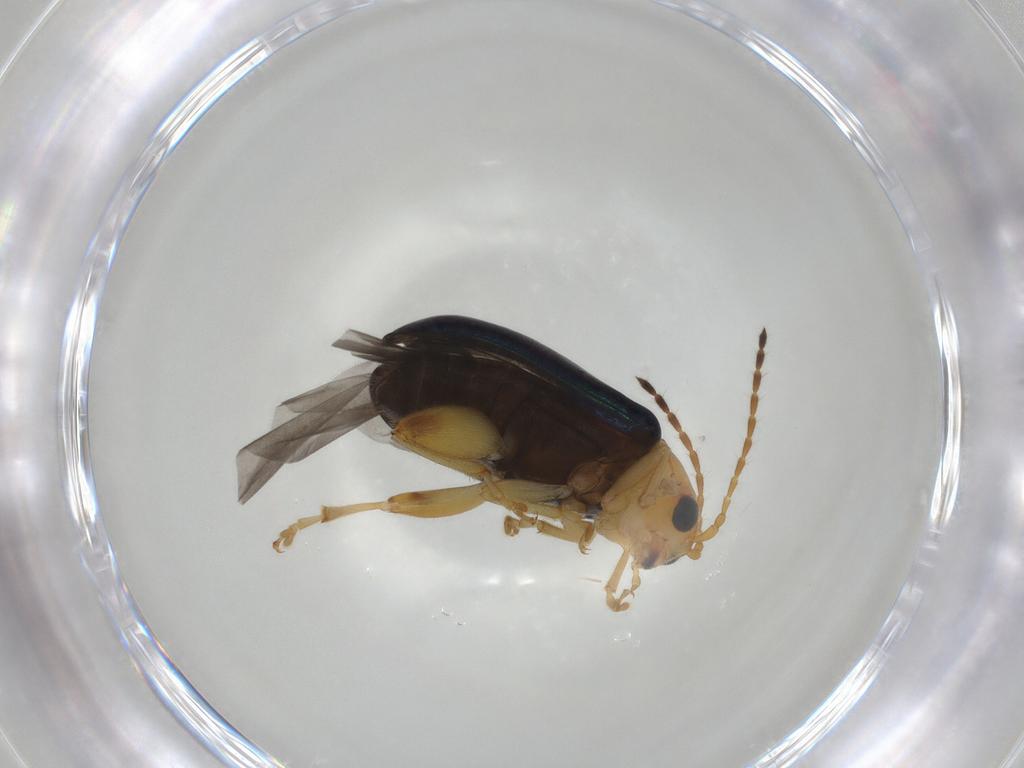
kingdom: Animalia
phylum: Arthropoda
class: Insecta
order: Coleoptera
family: Chrysomelidae
